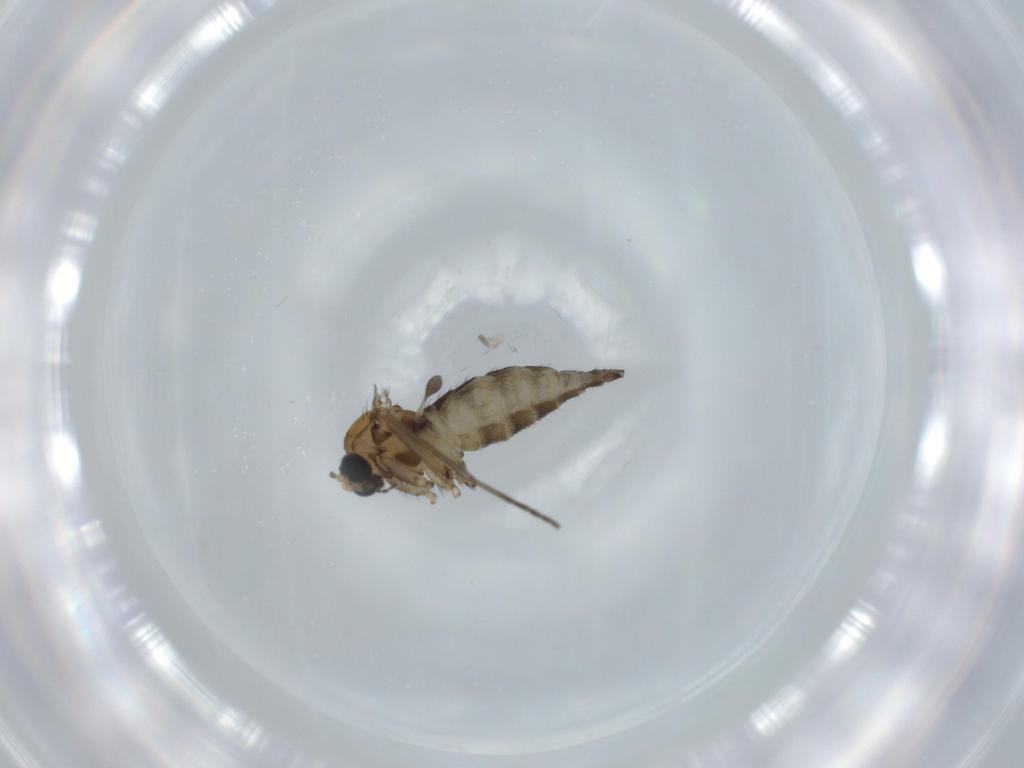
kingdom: Animalia
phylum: Arthropoda
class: Insecta
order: Diptera
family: Sciaridae
